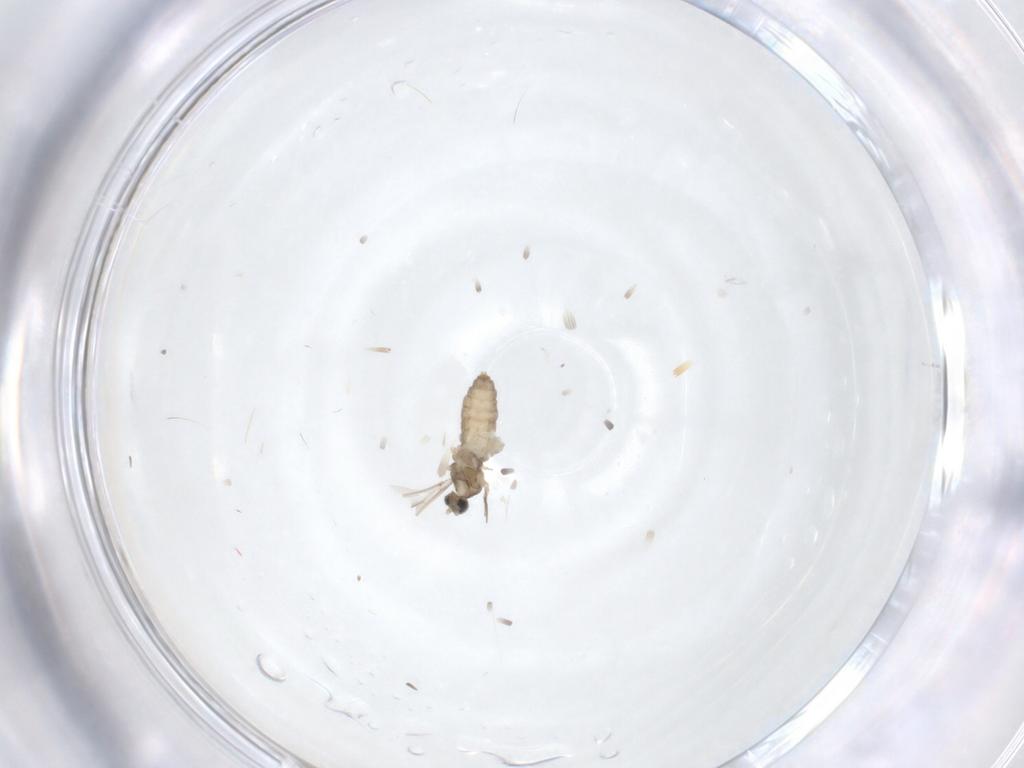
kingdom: Animalia
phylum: Arthropoda
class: Insecta
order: Diptera
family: Cecidomyiidae
